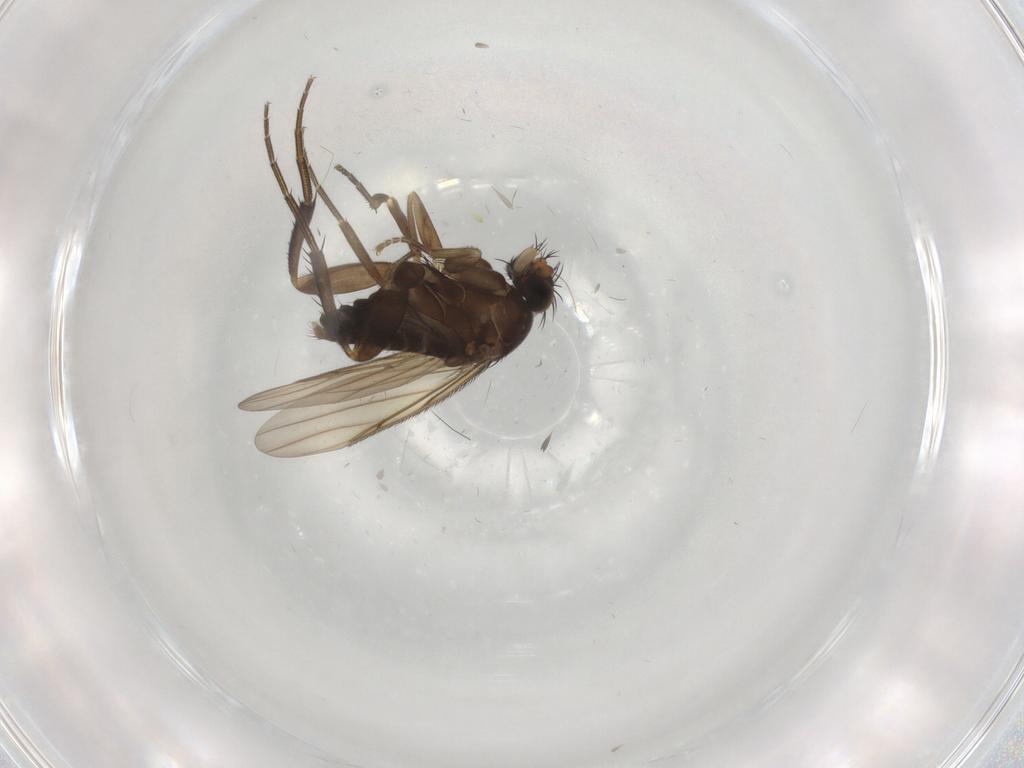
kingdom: Animalia
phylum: Arthropoda
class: Insecta
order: Diptera
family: Phoridae
